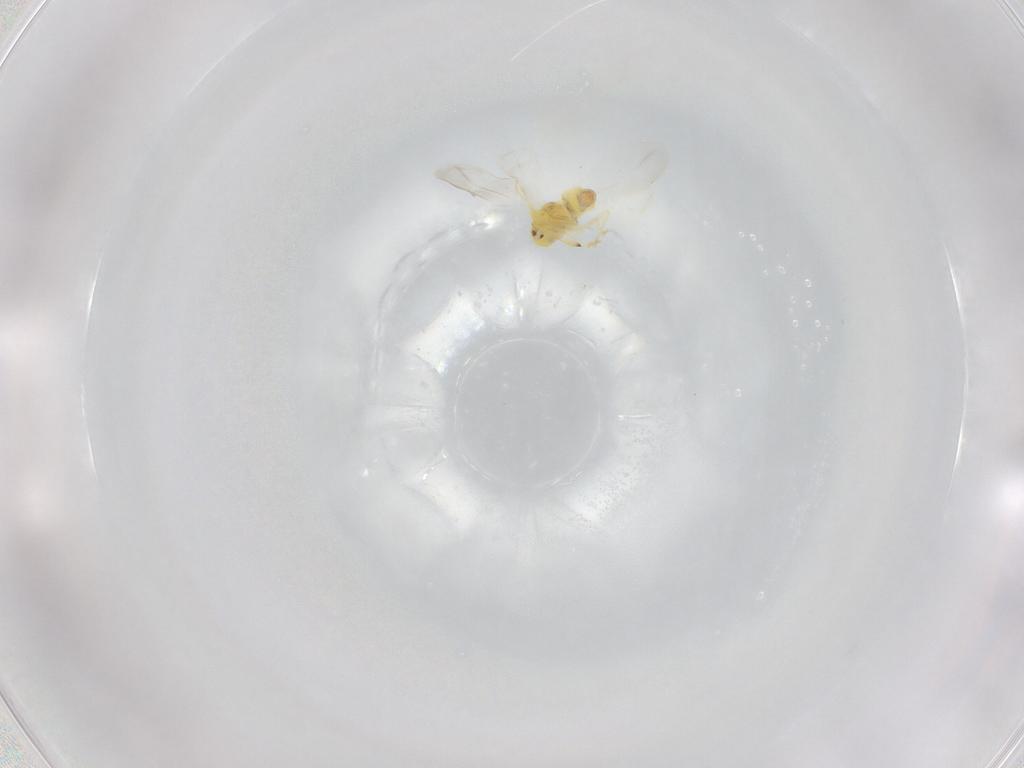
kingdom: Animalia
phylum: Arthropoda
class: Insecta
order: Hemiptera
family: Aleyrodidae
